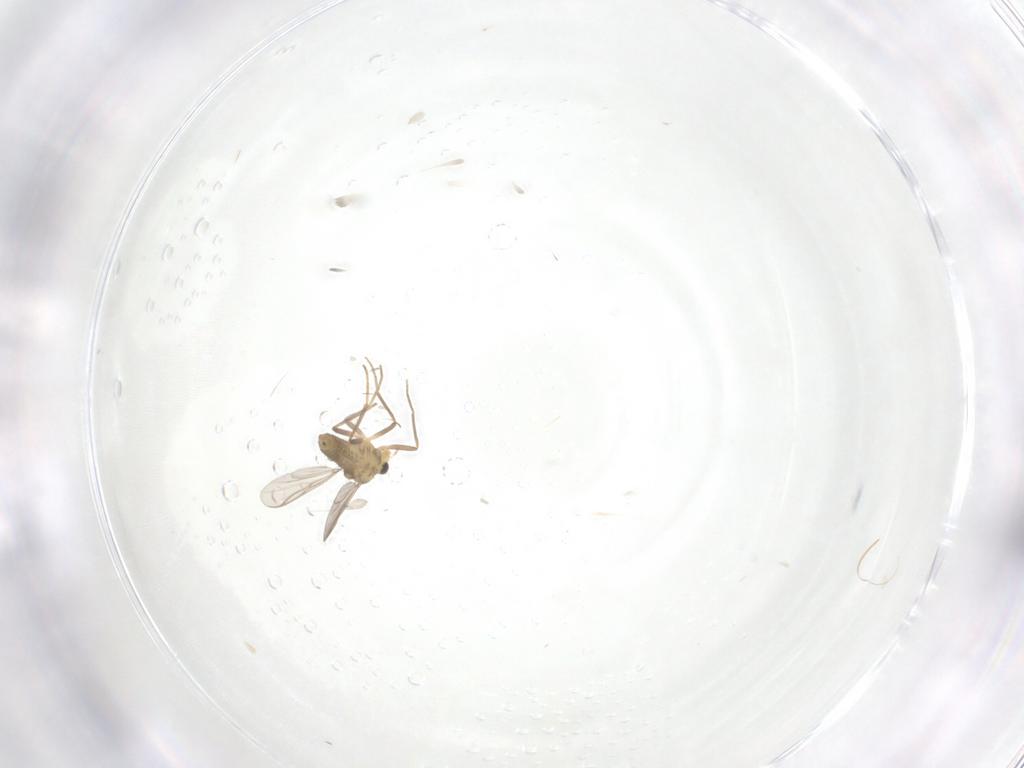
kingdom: Animalia
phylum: Arthropoda
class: Insecta
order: Diptera
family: Chironomidae
